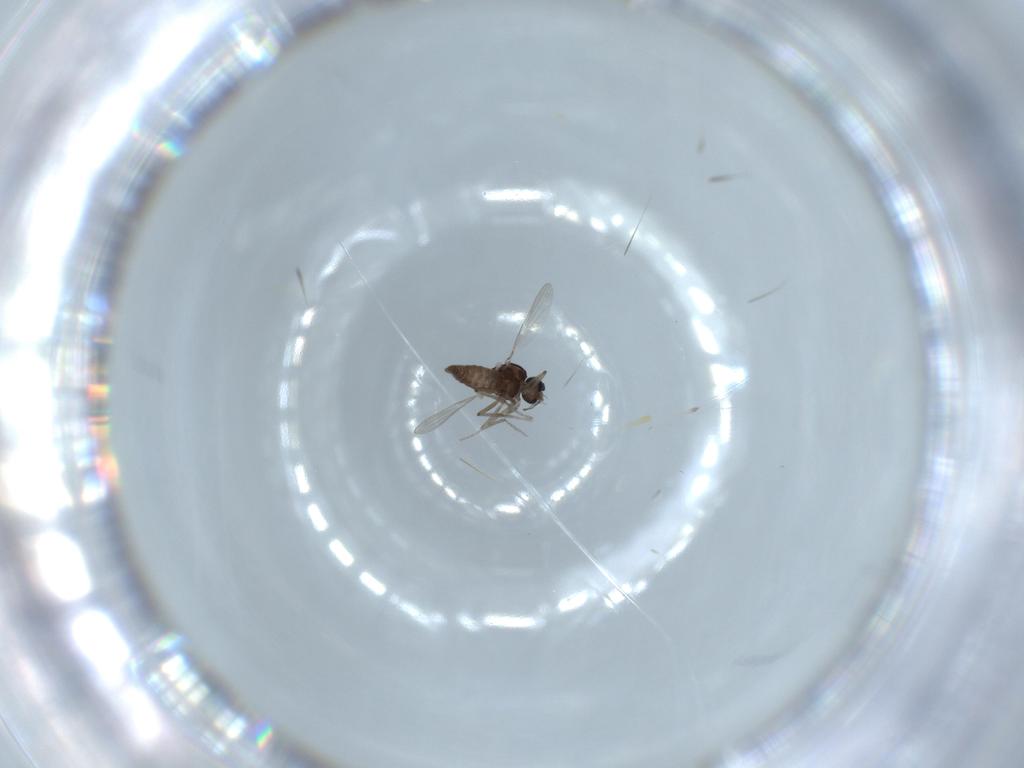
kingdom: Animalia
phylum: Arthropoda
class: Insecta
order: Diptera
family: Ceratopogonidae
